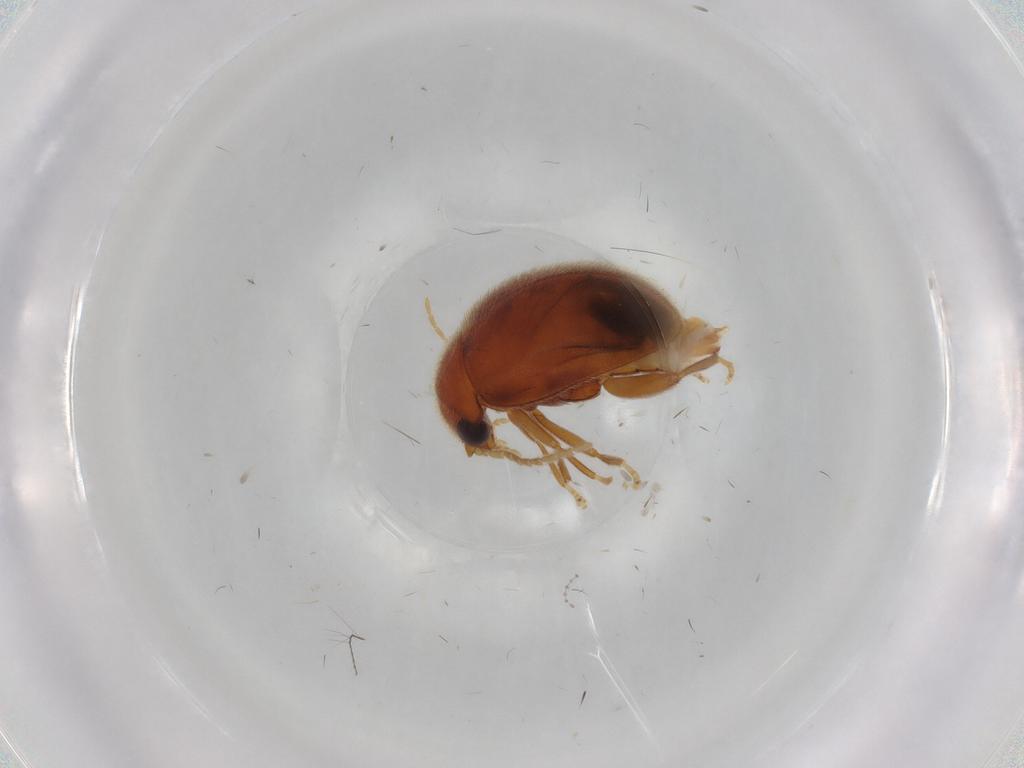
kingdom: Animalia
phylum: Arthropoda
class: Insecta
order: Coleoptera
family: Scirtidae
